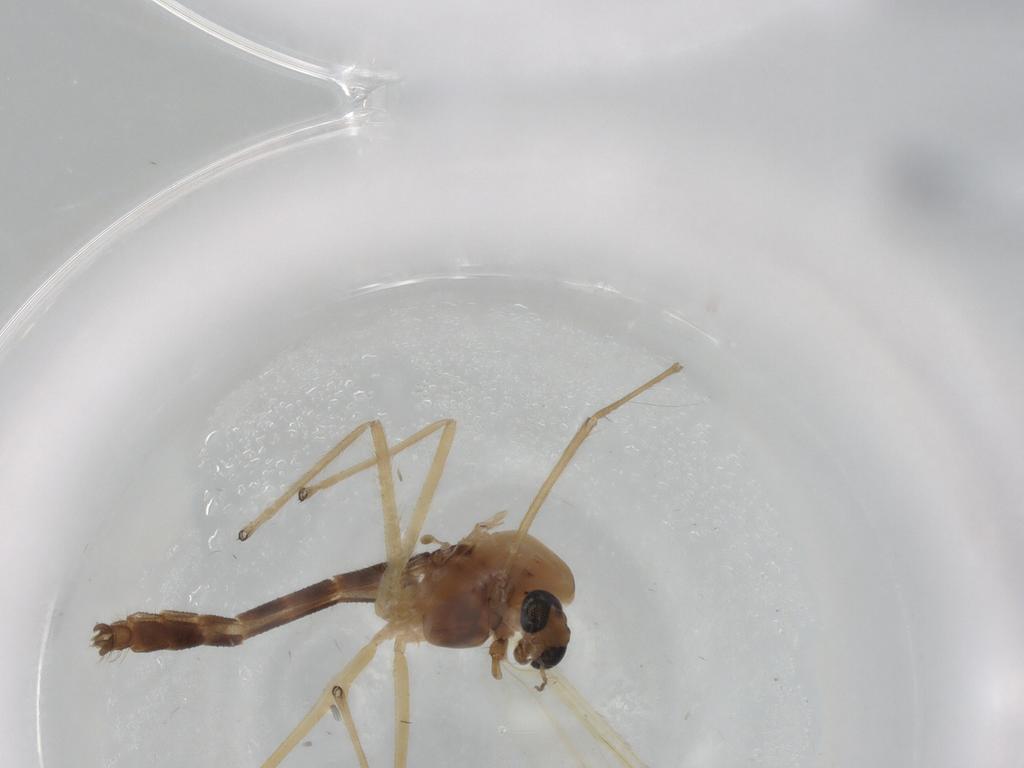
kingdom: Animalia
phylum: Arthropoda
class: Insecta
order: Diptera
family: Chironomidae
